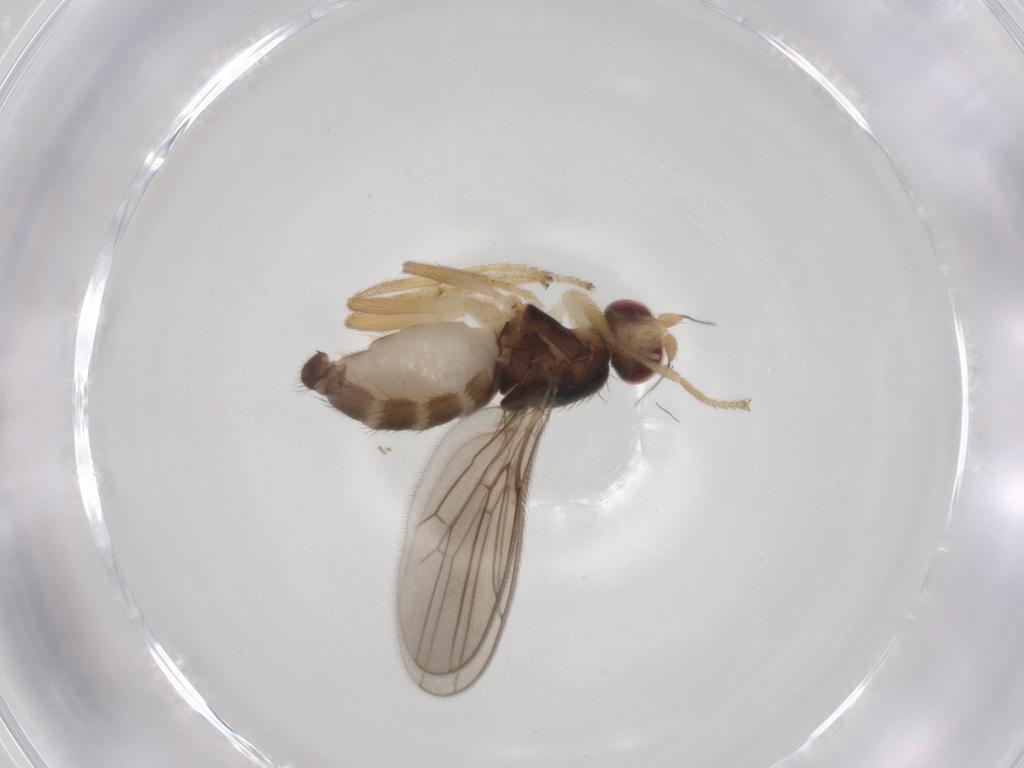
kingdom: Animalia
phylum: Arthropoda
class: Insecta
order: Diptera
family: Chloropidae
